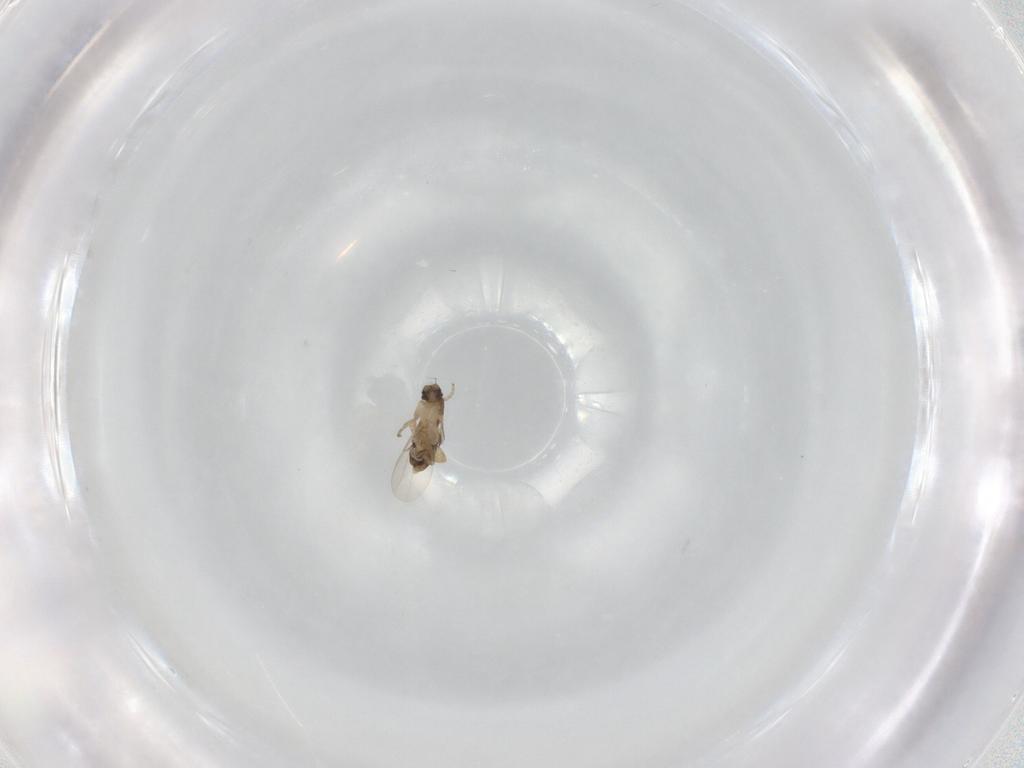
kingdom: Animalia
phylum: Arthropoda
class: Insecta
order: Diptera
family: Phoridae
